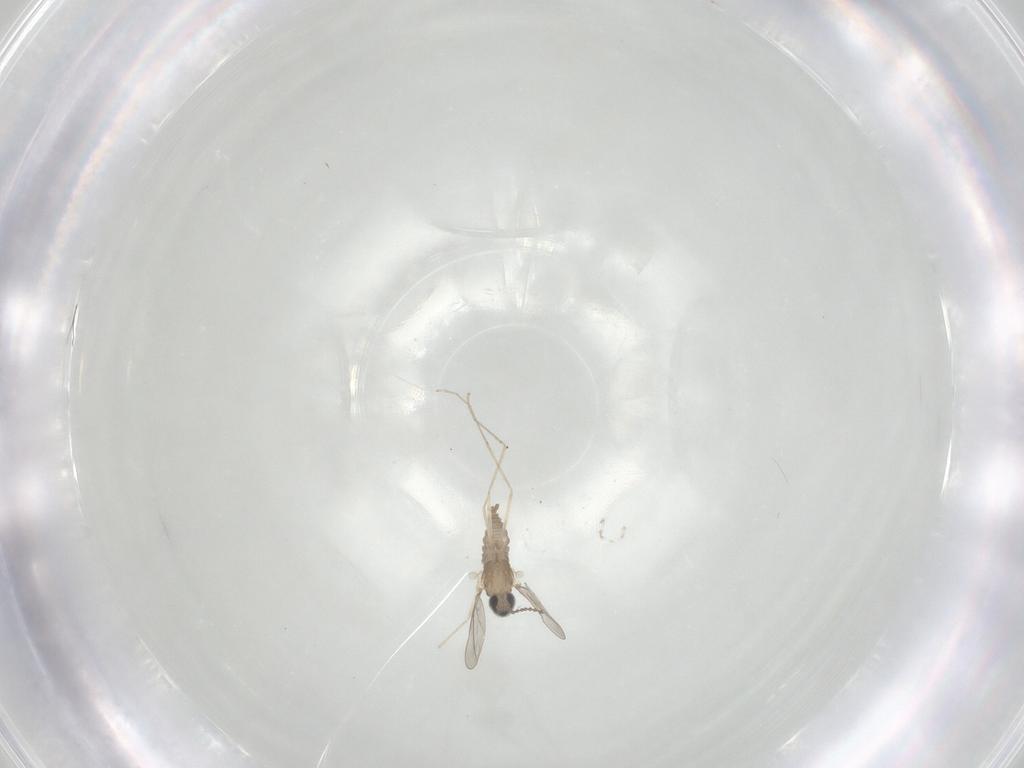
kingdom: Animalia
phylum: Arthropoda
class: Insecta
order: Diptera
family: Cecidomyiidae
